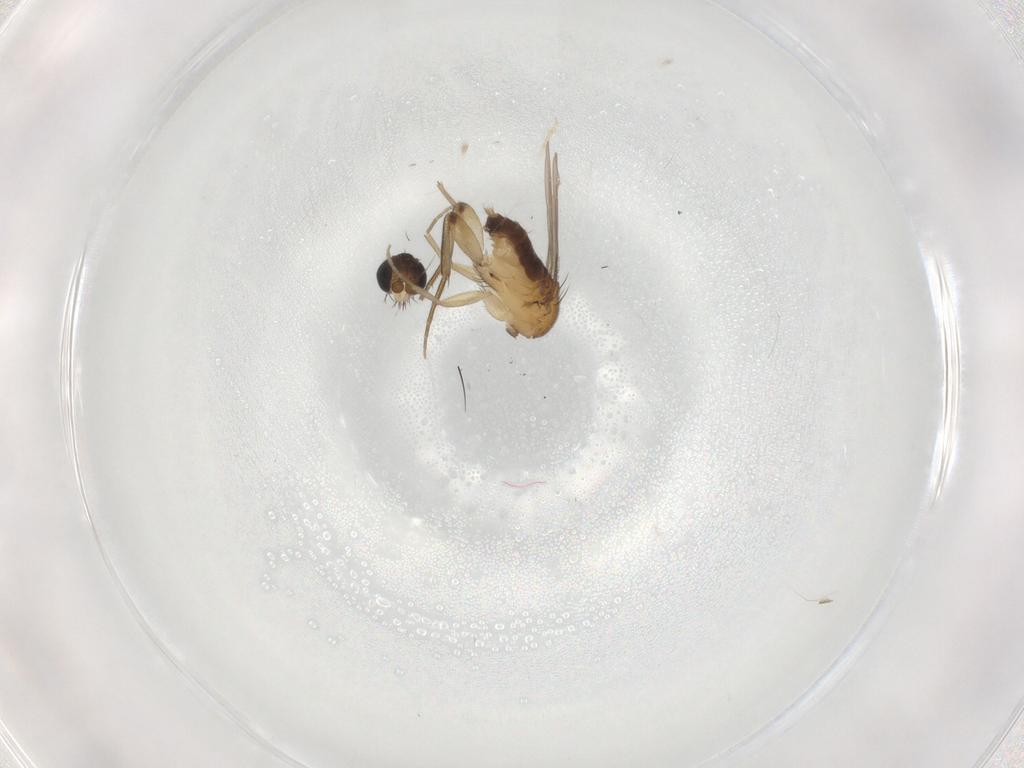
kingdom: Animalia
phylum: Arthropoda
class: Insecta
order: Diptera
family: Phoridae
